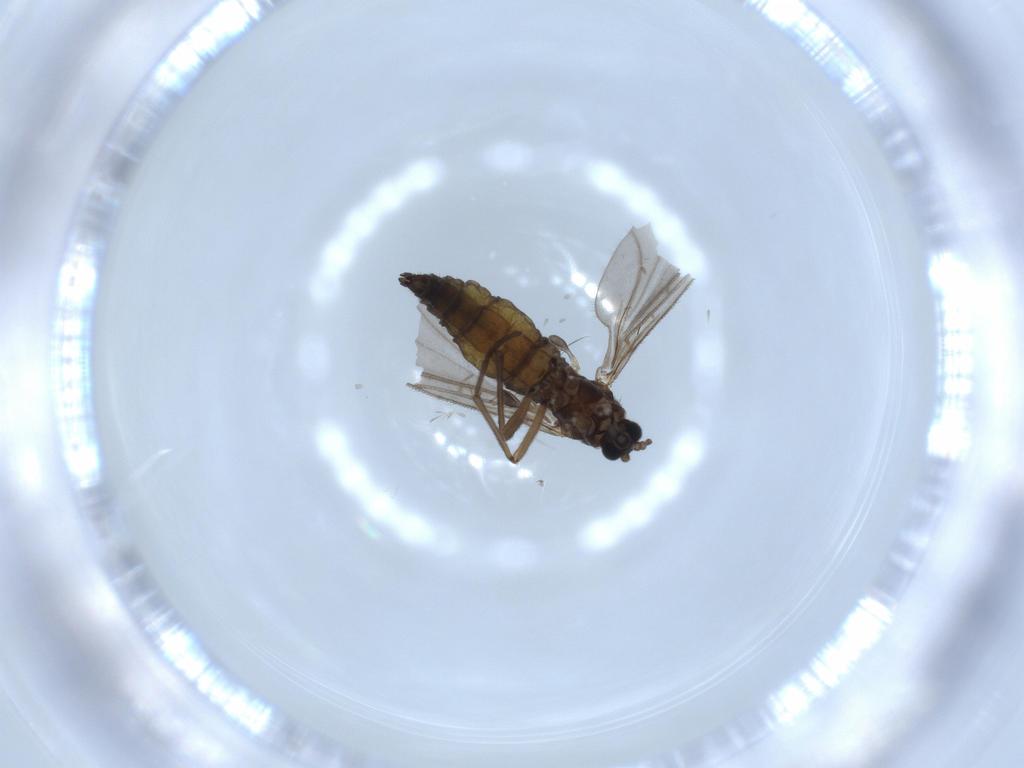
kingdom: Animalia
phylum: Arthropoda
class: Insecta
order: Diptera
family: Sciaridae
